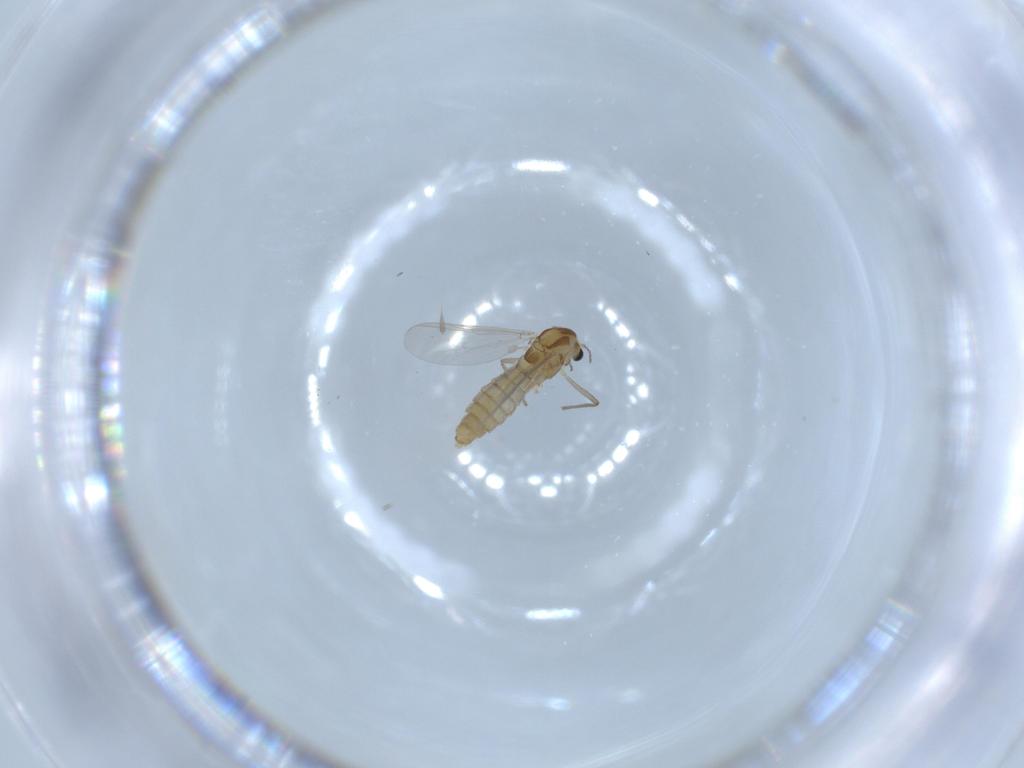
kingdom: Animalia
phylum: Arthropoda
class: Insecta
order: Diptera
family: Chironomidae
